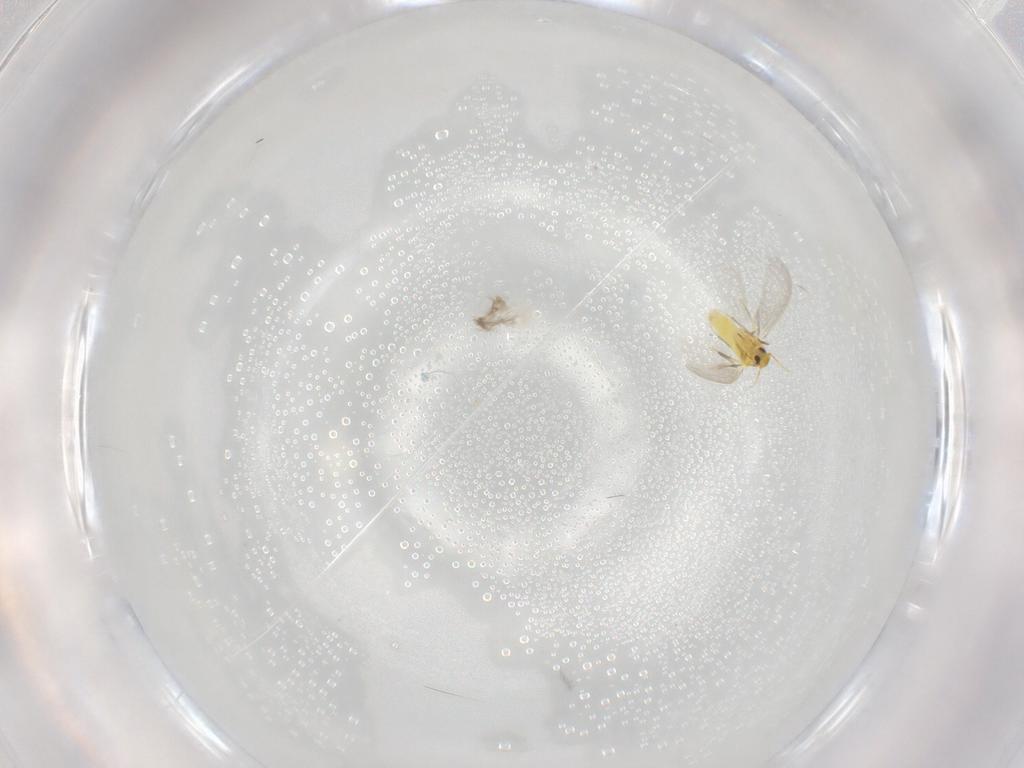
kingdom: Animalia
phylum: Arthropoda
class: Insecta
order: Hemiptera
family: Aleyrodidae
